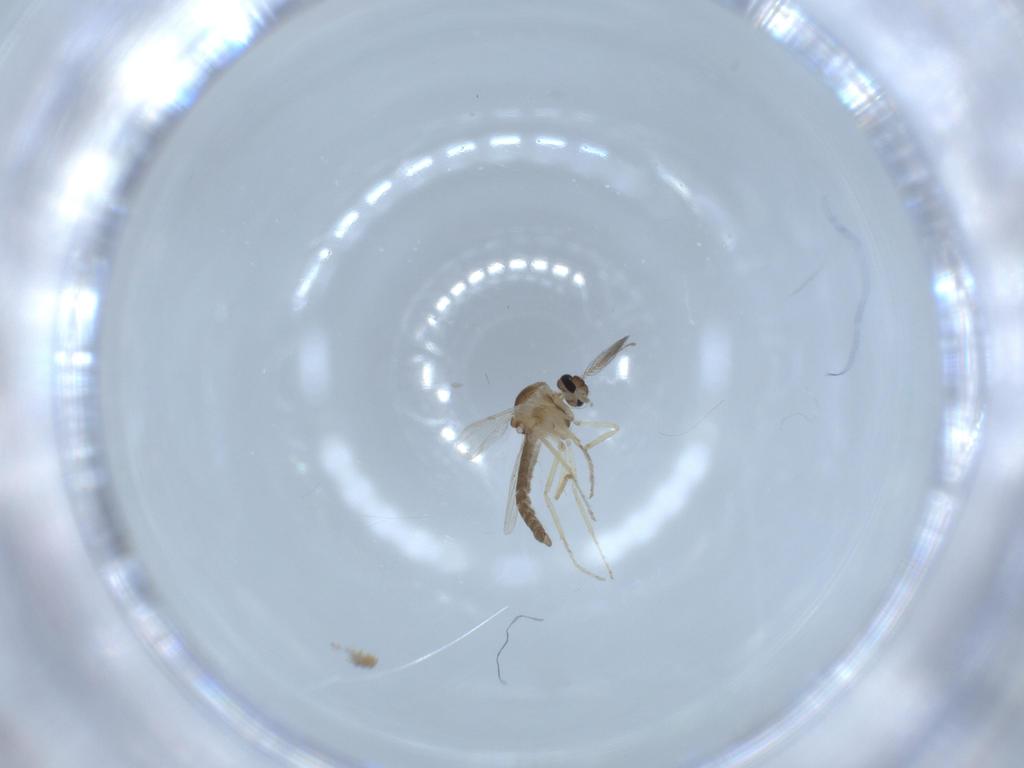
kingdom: Animalia
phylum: Arthropoda
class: Insecta
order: Diptera
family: Ceratopogonidae
